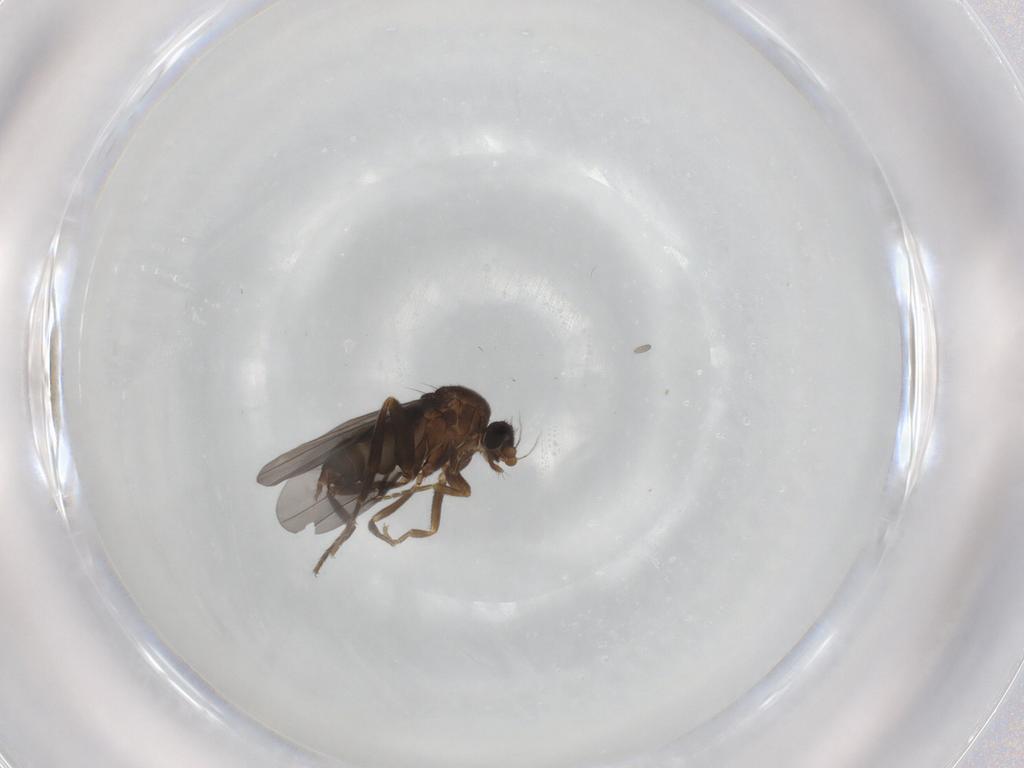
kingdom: Animalia
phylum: Arthropoda
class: Insecta
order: Diptera
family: Phoridae
